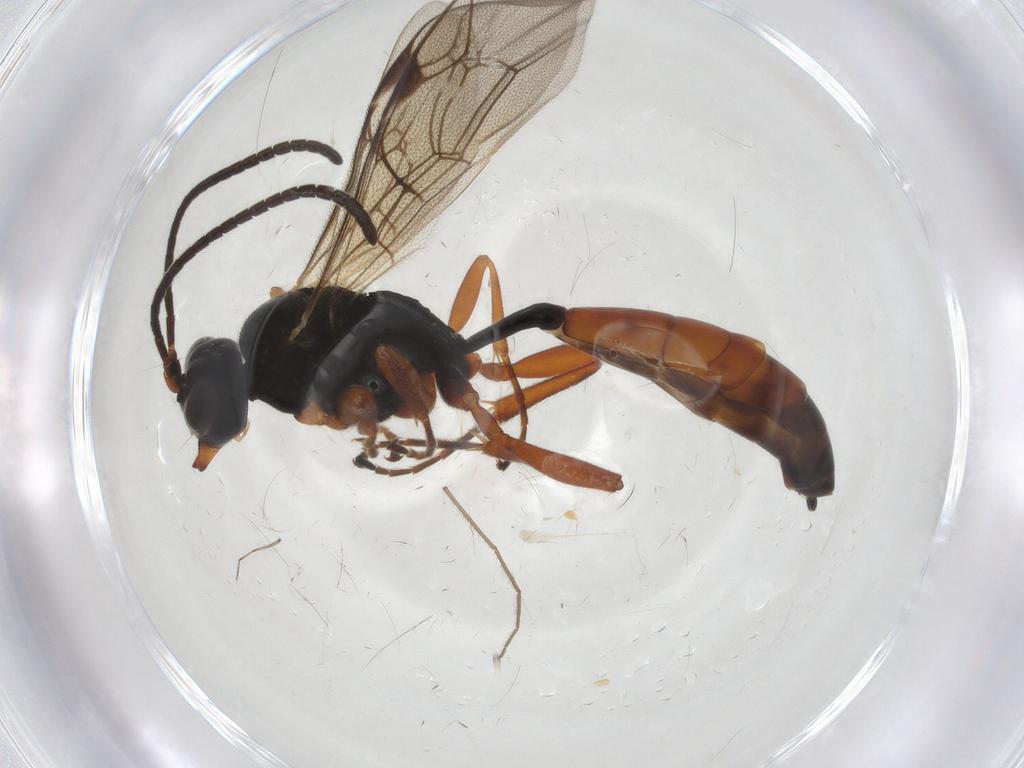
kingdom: Animalia
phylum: Arthropoda
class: Insecta
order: Hymenoptera
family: Ichneumonidae
